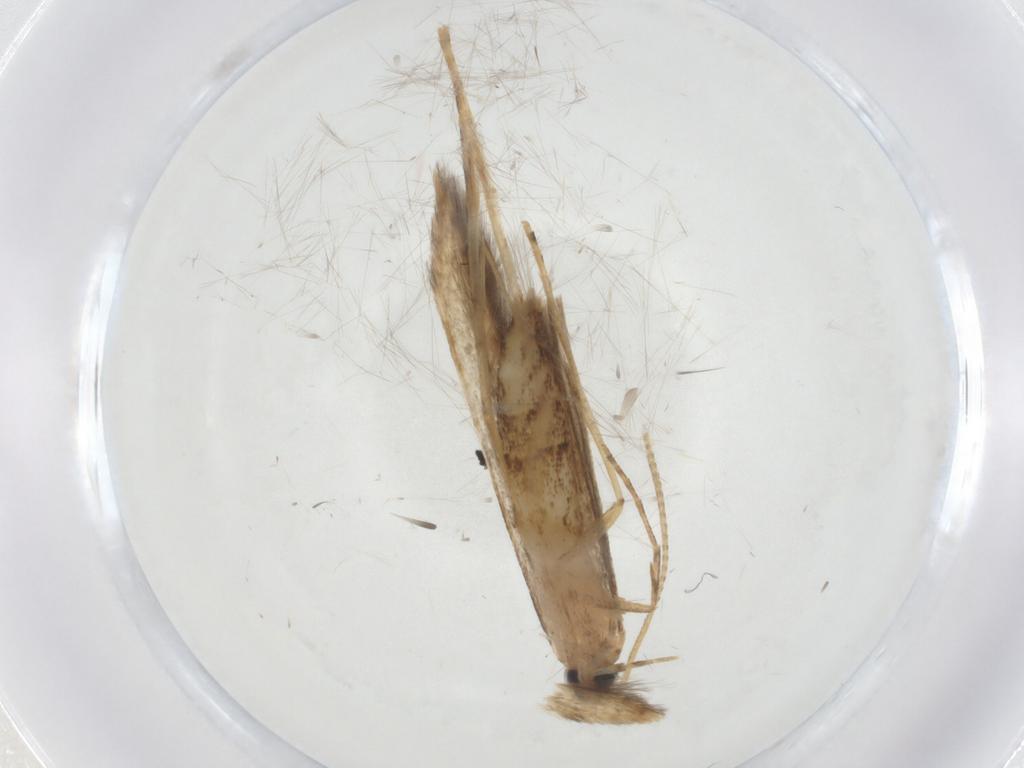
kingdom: Animalia
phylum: Arthropoda
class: Insecta
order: Lepidoptera
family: Batrachedridae
